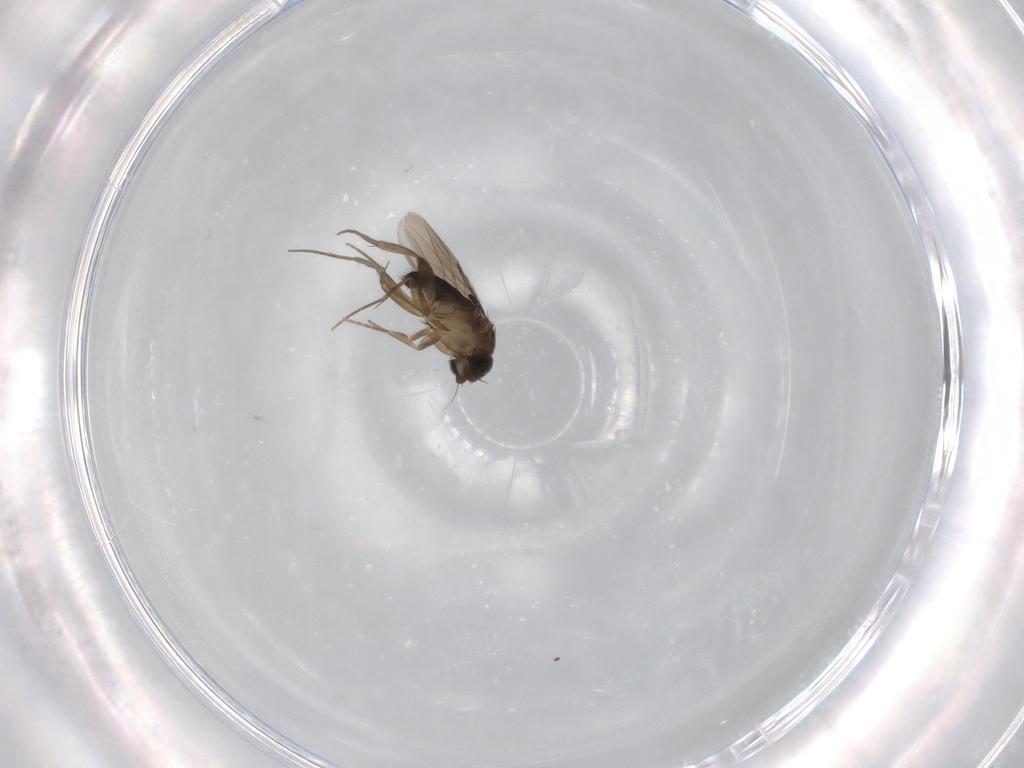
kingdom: Animalia
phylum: Arthropoda
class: Insecta
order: Diptera
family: Phoridae
